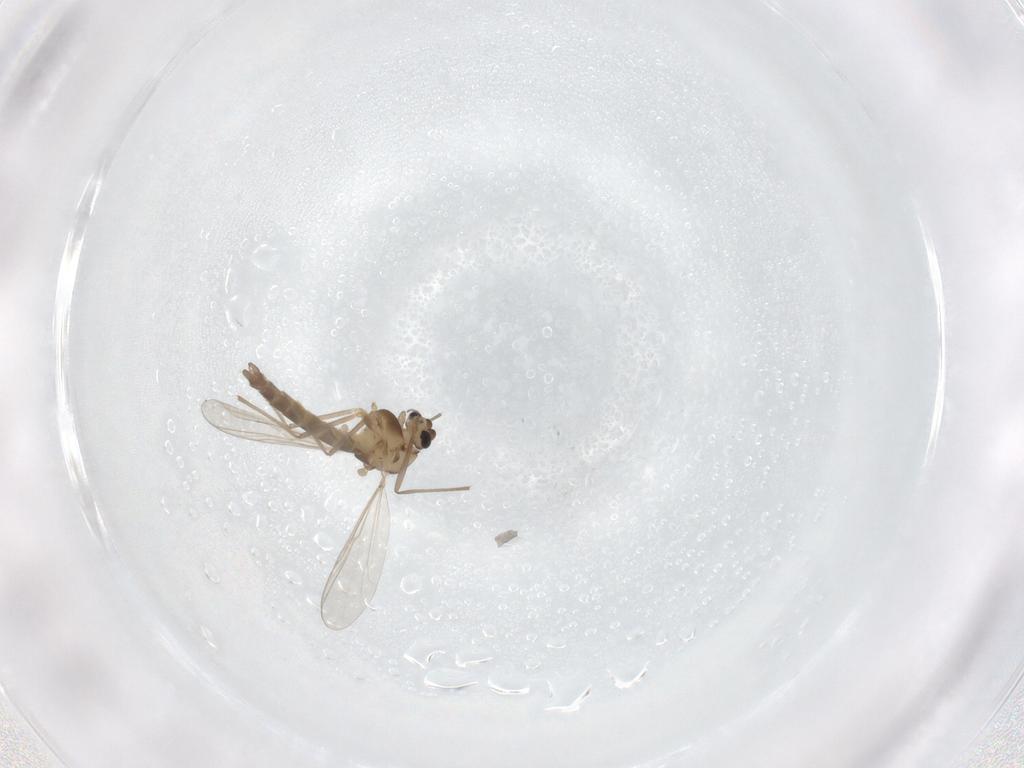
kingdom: Animalia
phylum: Arthropoda
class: Insecta
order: Diptera
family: Chironomidae
